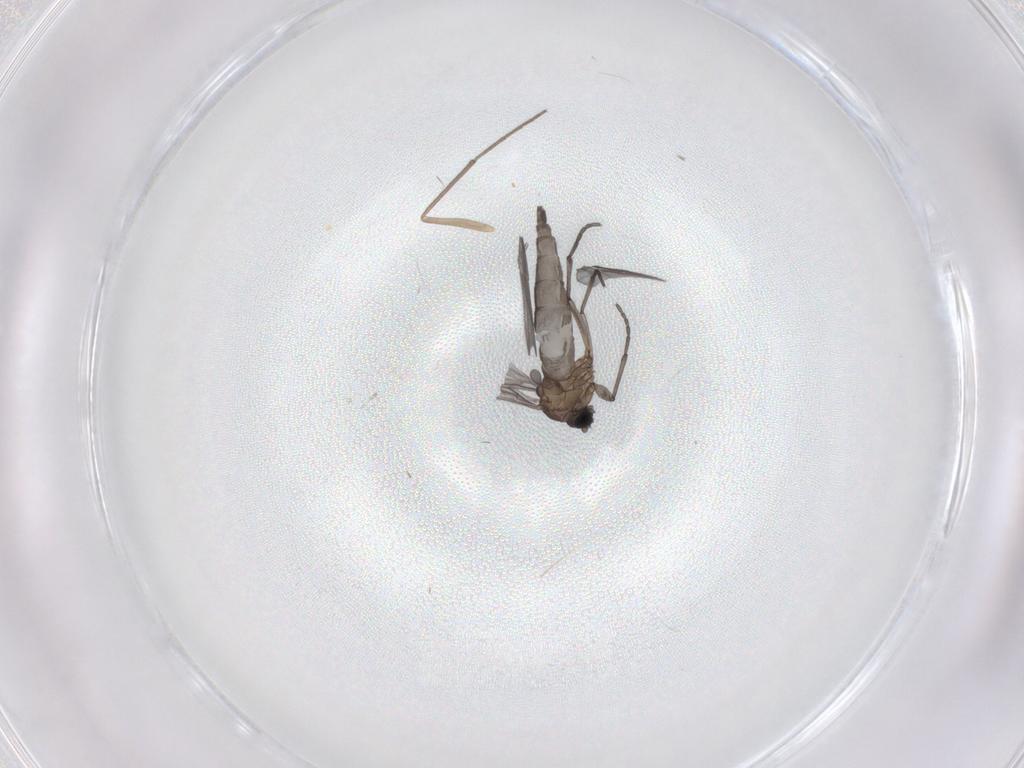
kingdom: Animalia
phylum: Arthropoda
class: Insecta
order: Diptera
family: Sciaridae
